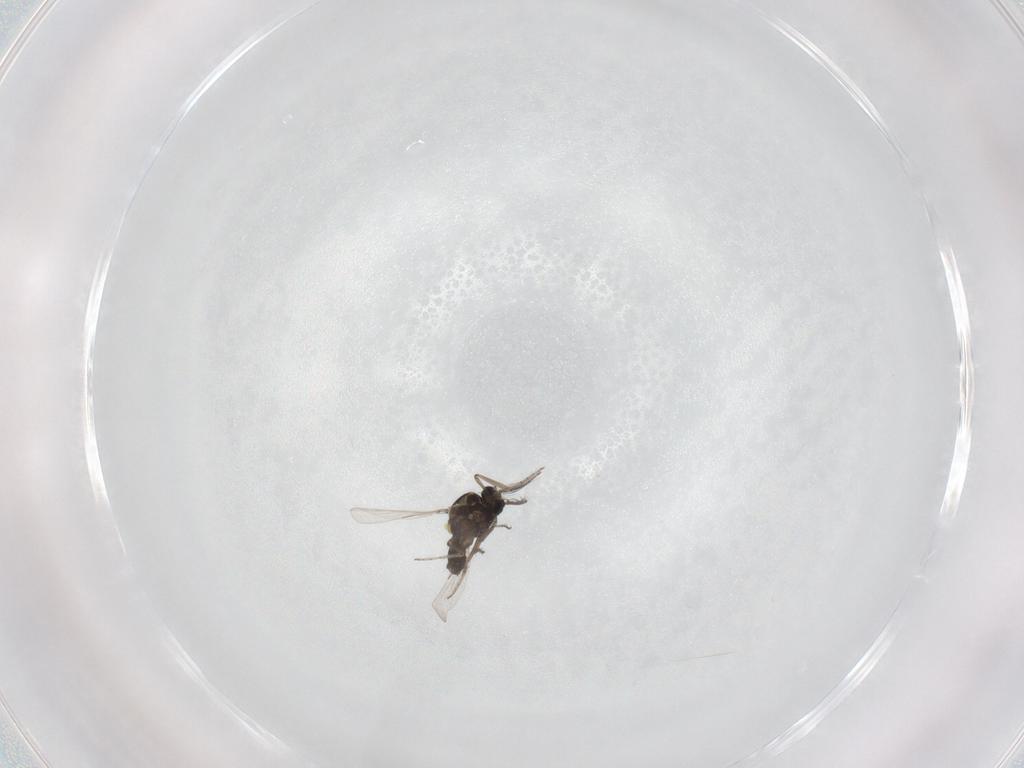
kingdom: Animalia
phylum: Arthropoda
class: Insecta
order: Diptera
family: Ceratopogonidae
